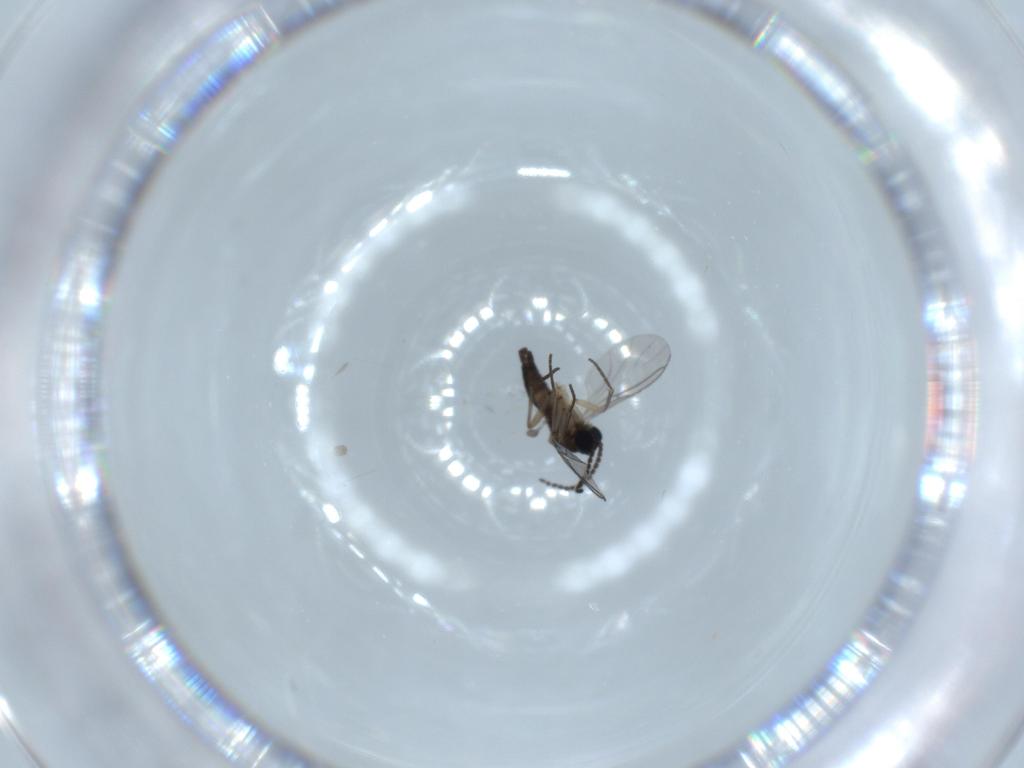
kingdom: Animalia
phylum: Arthropoda
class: Insecta
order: Diptera
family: Sciaridae
